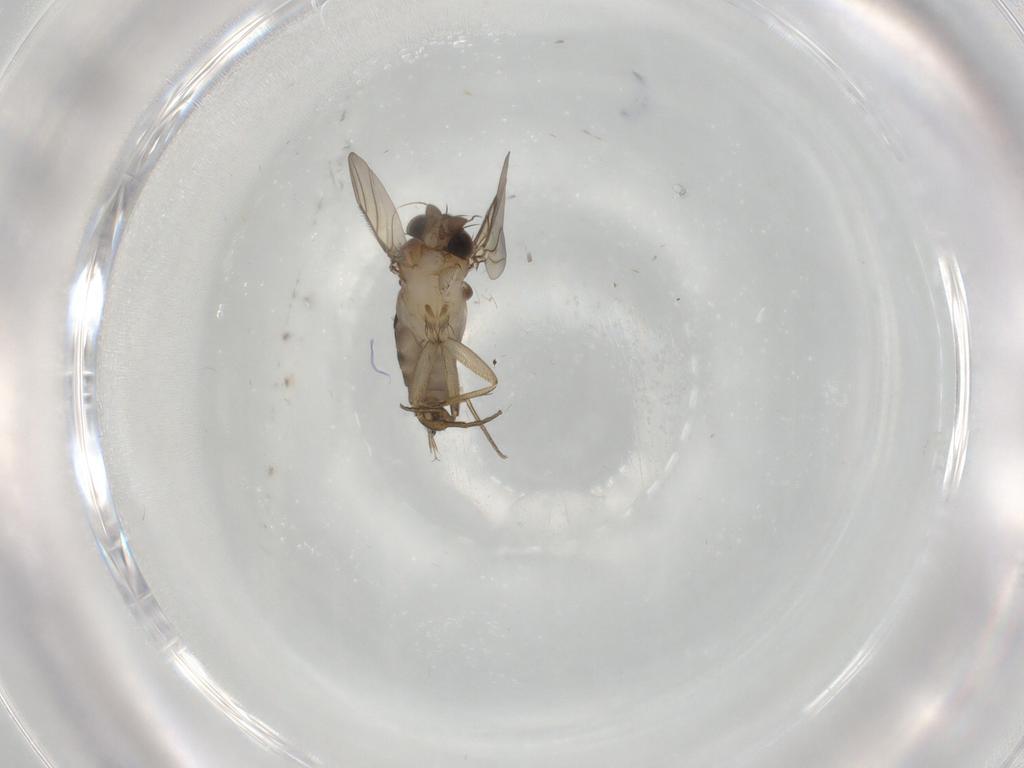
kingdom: Animalia
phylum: Arthropoda
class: Insecta
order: Diptera
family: Phoridae
